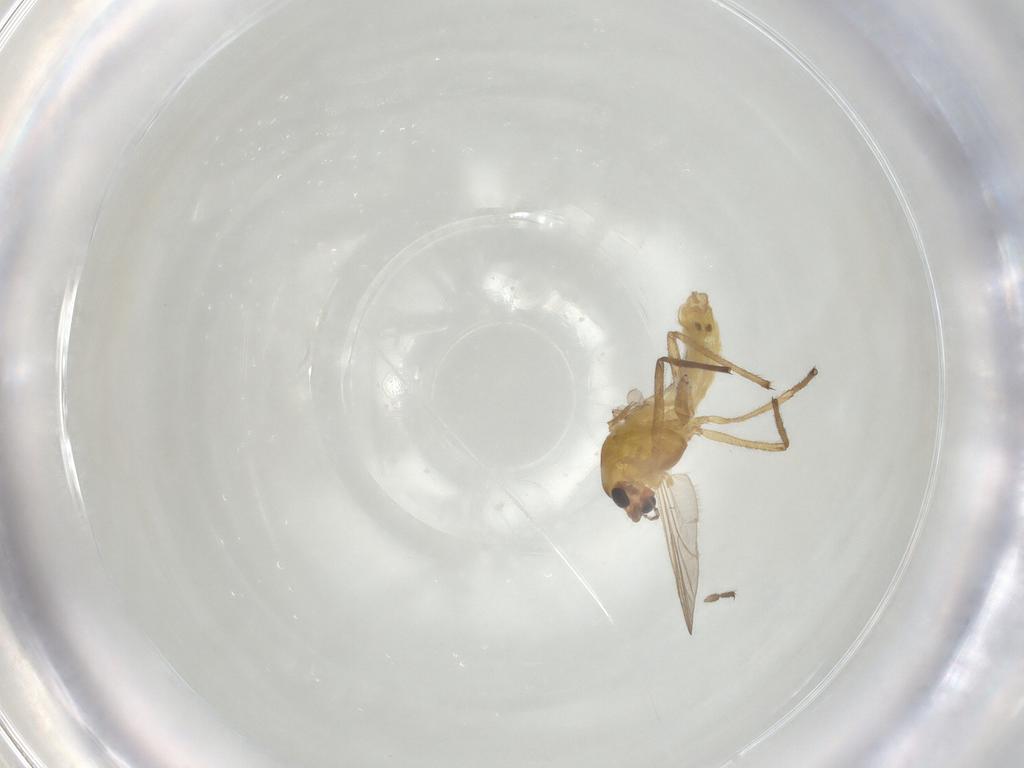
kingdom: Animalia
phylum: Arthropoda
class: Insecta
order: Diptera
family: Chironomidae
